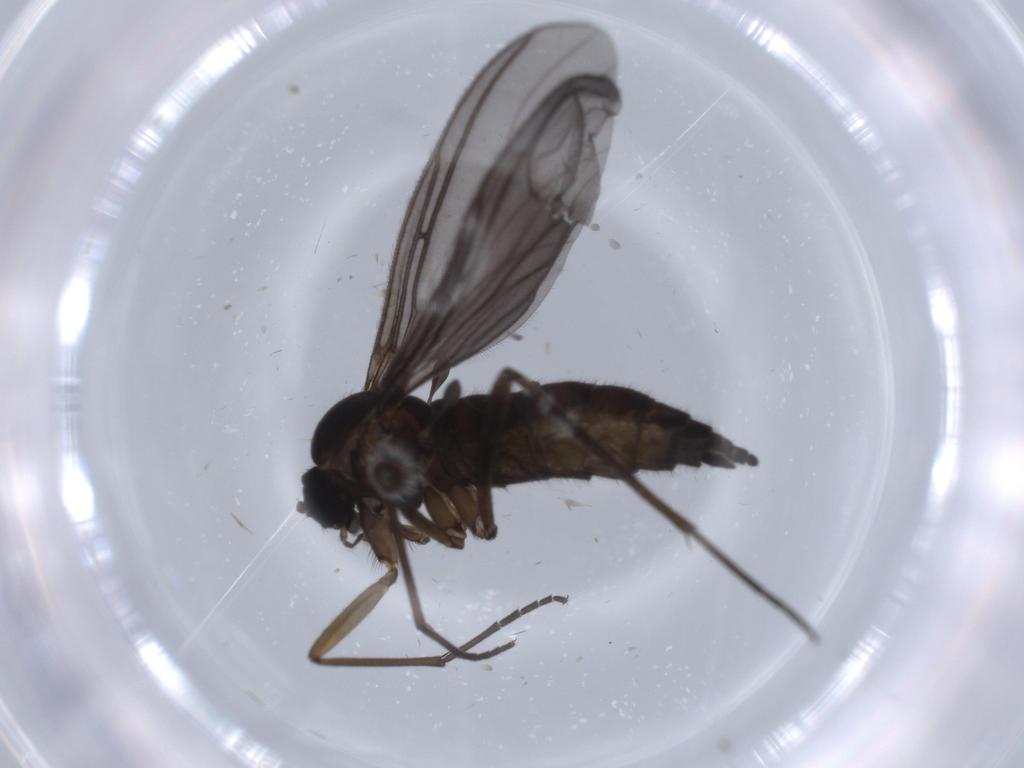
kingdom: Animalia
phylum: Arthropoda
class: Insecta
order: Diptera
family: Sciaridae
